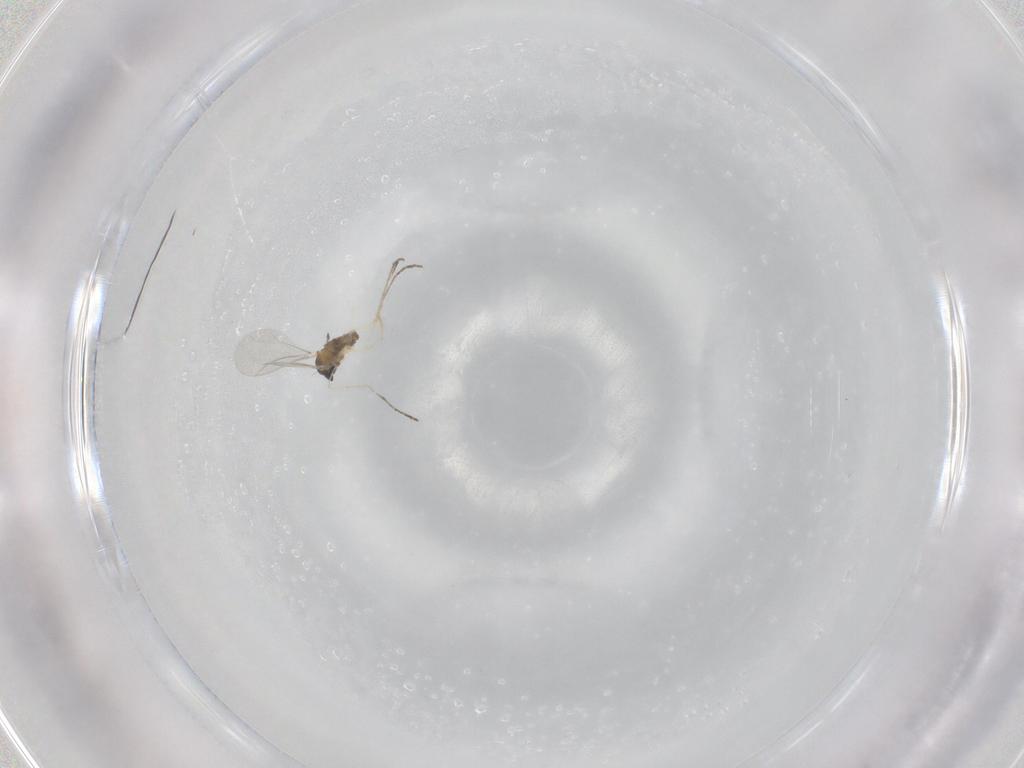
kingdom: Animalia
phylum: Arthropoda
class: Insecta
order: Diptera
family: Cecidomyiidae
